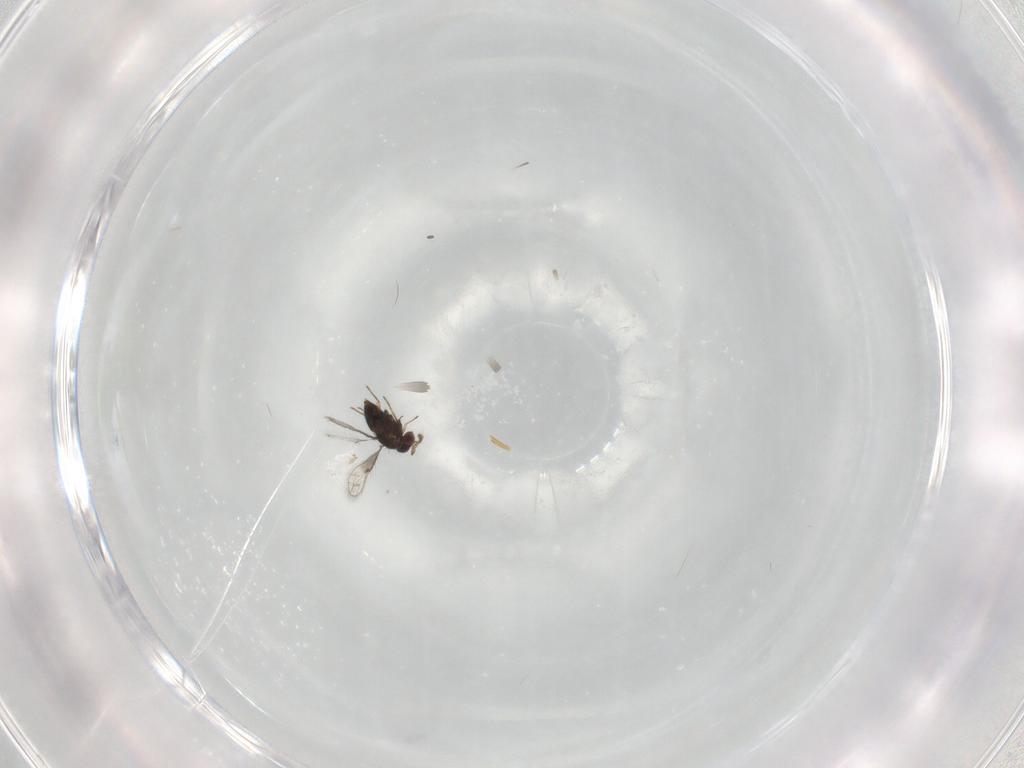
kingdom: Animalia
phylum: Arthropoda
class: Insecta
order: Hymenoptera
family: Trichogrammatidae
